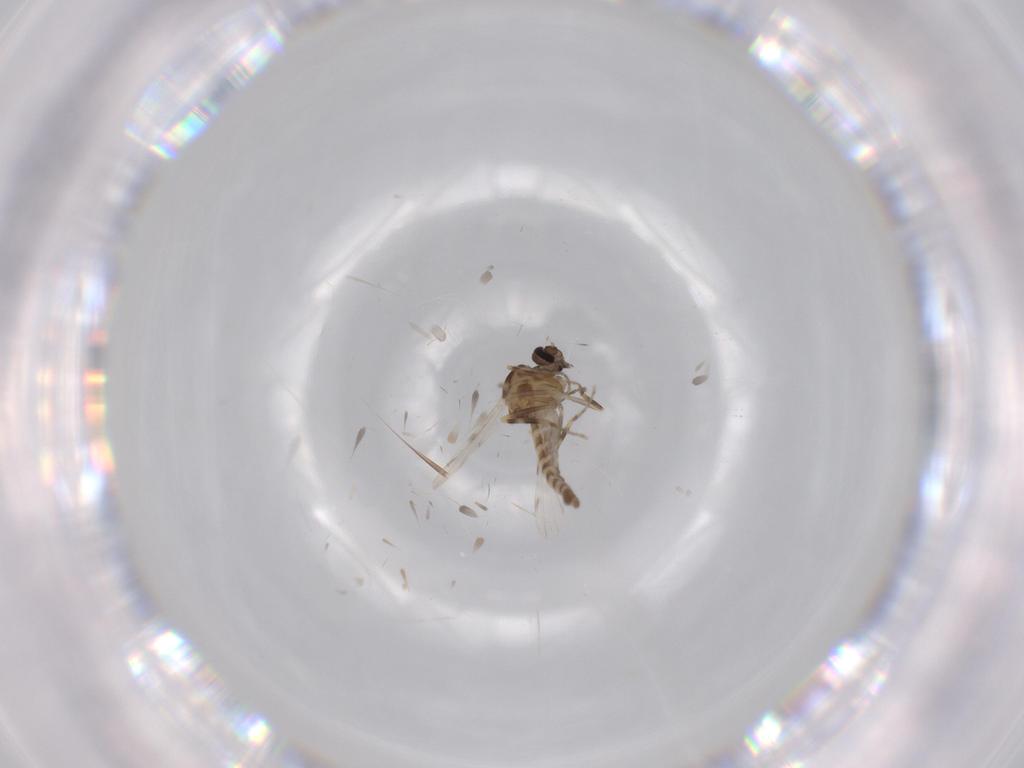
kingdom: Animalia
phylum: Arthropoda
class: Insecta
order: Diptera
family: Ceratopogonidae
